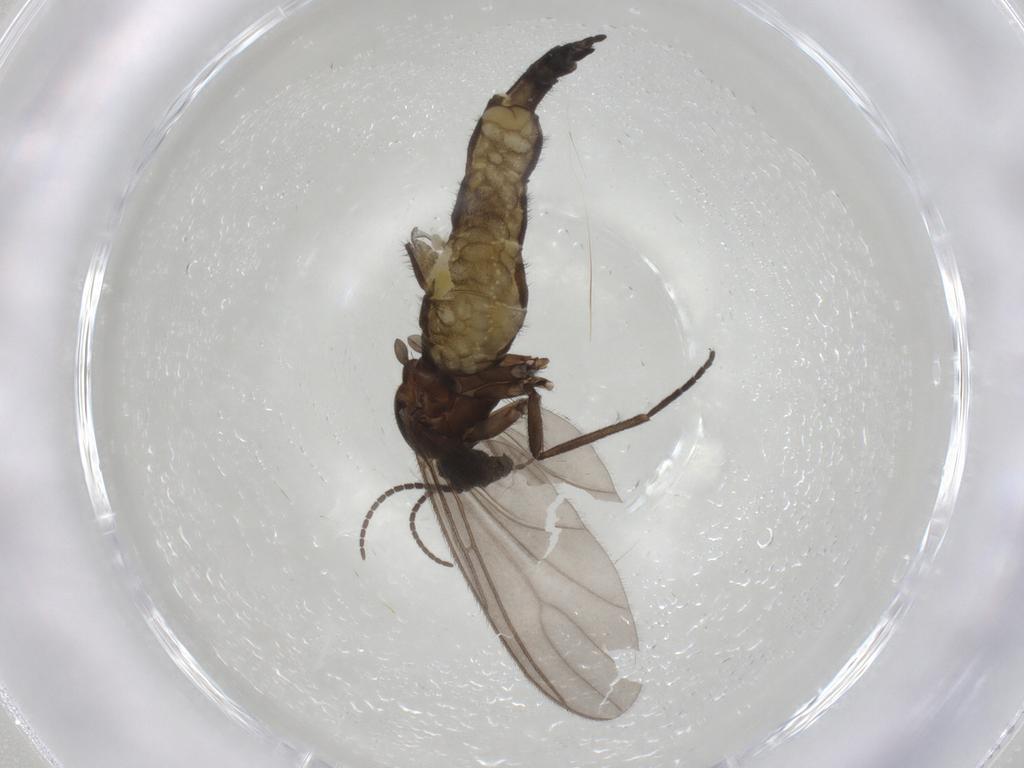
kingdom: Animalia
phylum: Arthropoda
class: Insecta
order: Diptera
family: Sciaridae
